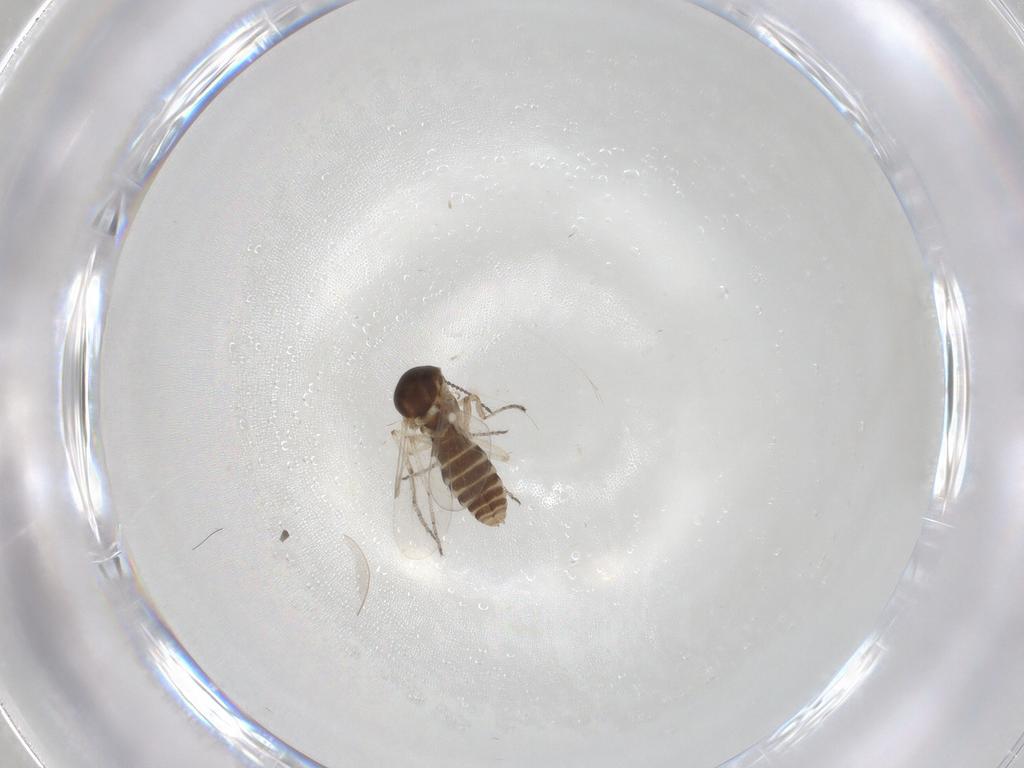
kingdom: Animalia
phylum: Arthropoda
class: Insecta
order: Diptera
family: Ceratopogonidae
